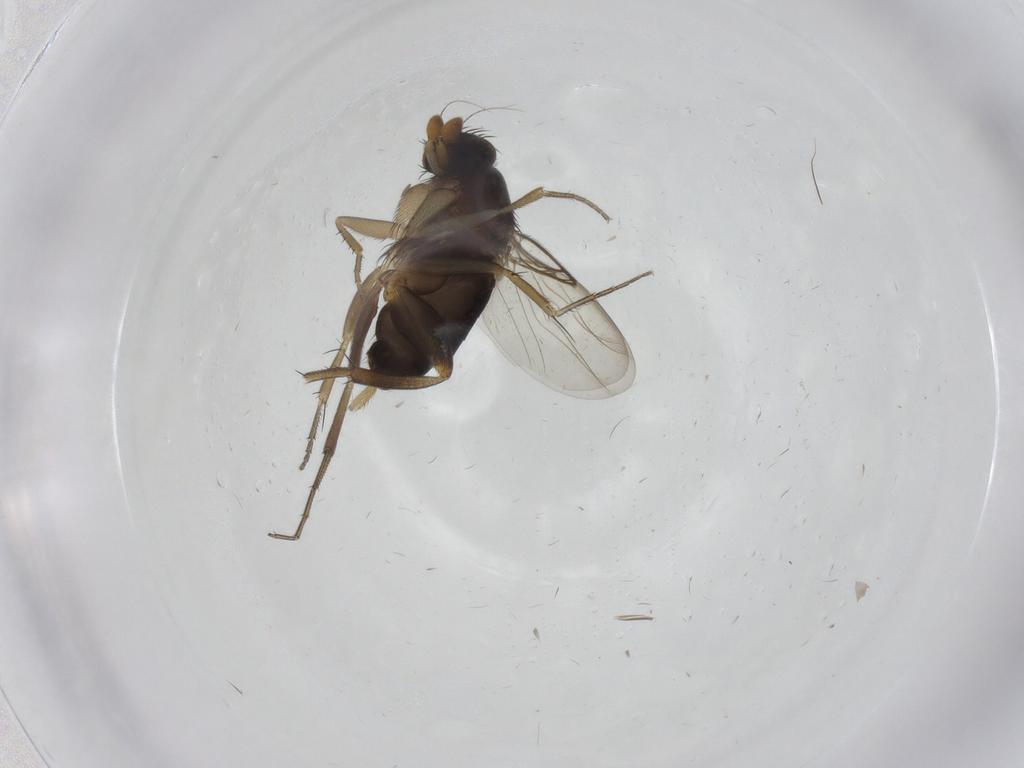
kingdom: Animalia
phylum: Arthropoda
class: Insecta
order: Diptera
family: Phoridae
